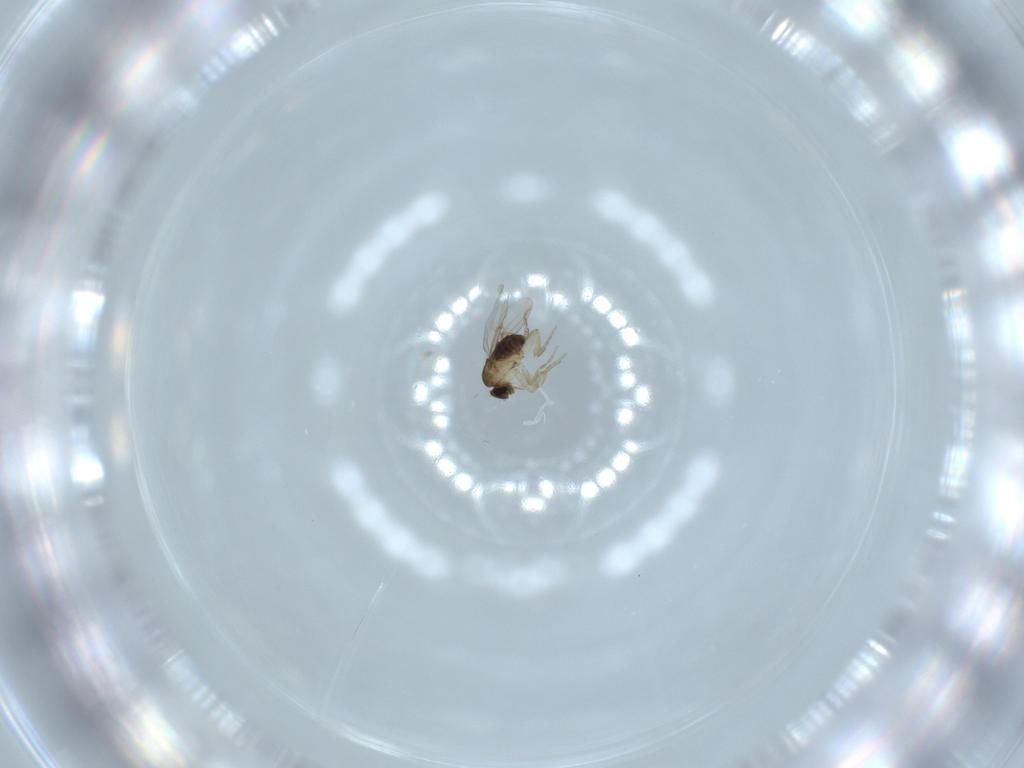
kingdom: Animalia
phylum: Arthropoda
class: Insecta
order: Diptera
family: Phoridae
